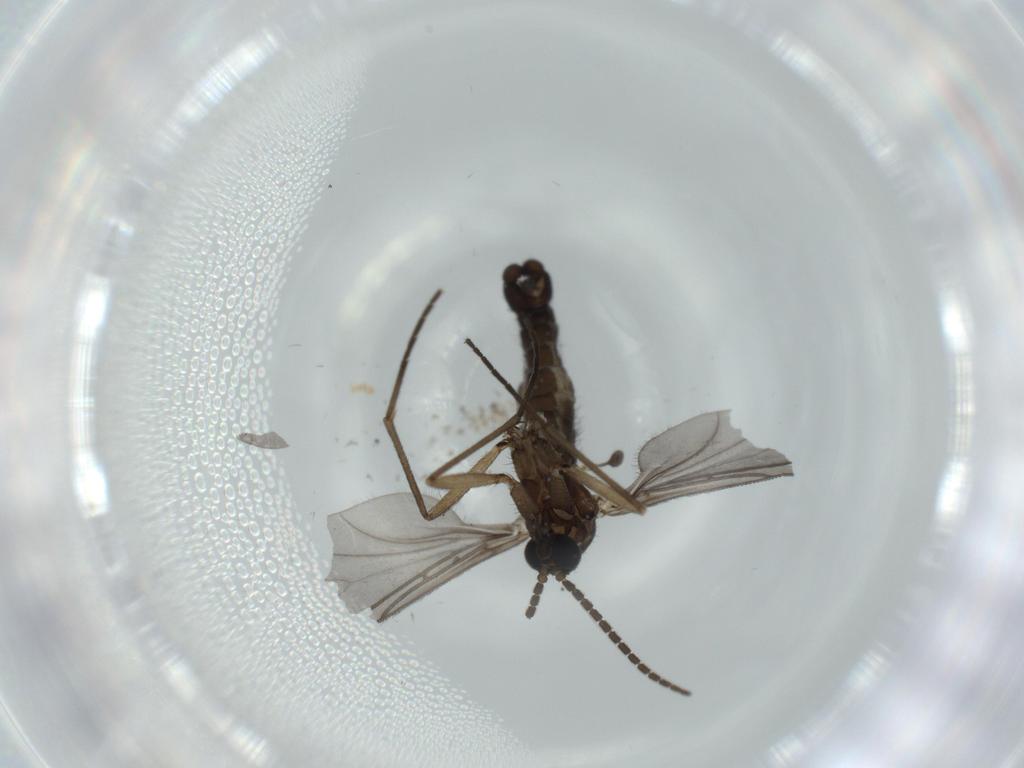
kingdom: Animalia
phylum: Arthropoda
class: Insecta
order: Diptera
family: Sciaridae
